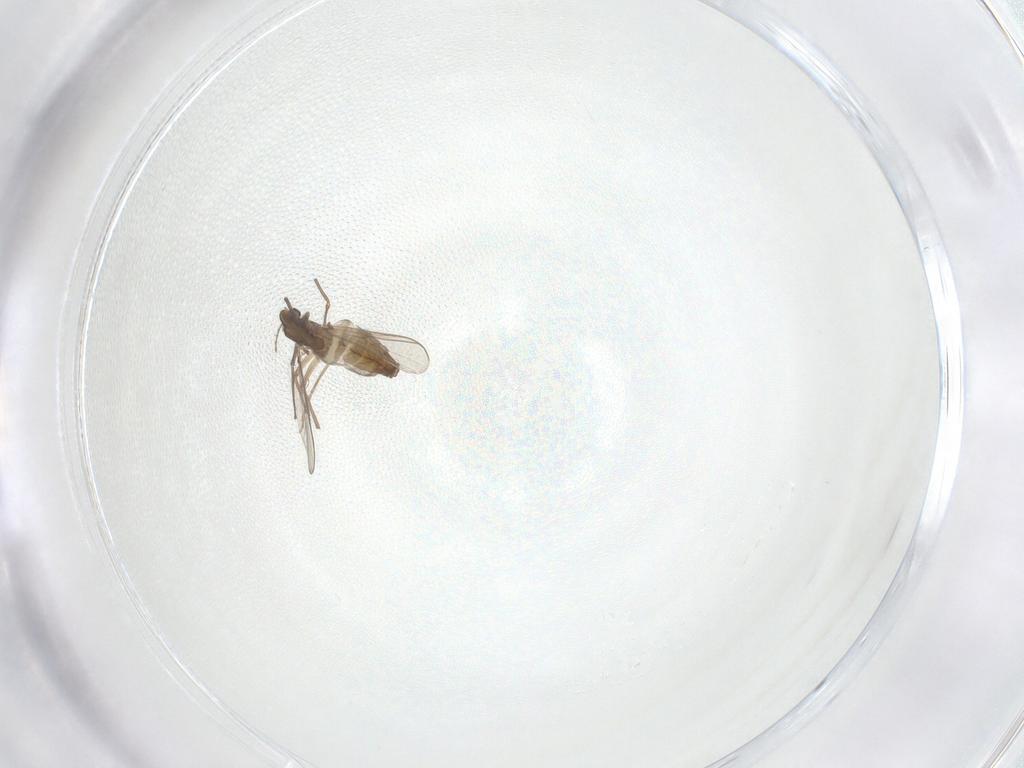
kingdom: Animalia
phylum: Arthropoda
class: Insecta
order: Diptera
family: Chironomidae
